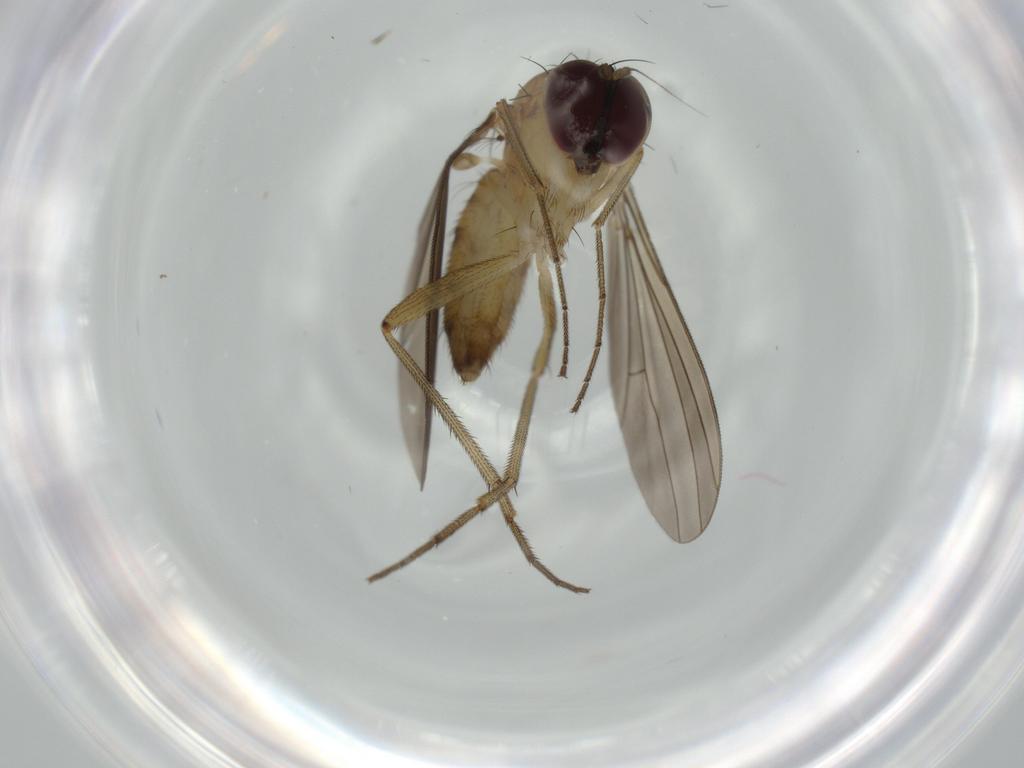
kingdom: Animalia
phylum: Arthropoda
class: Insecta
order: Diptera
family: Dolichopodidae
